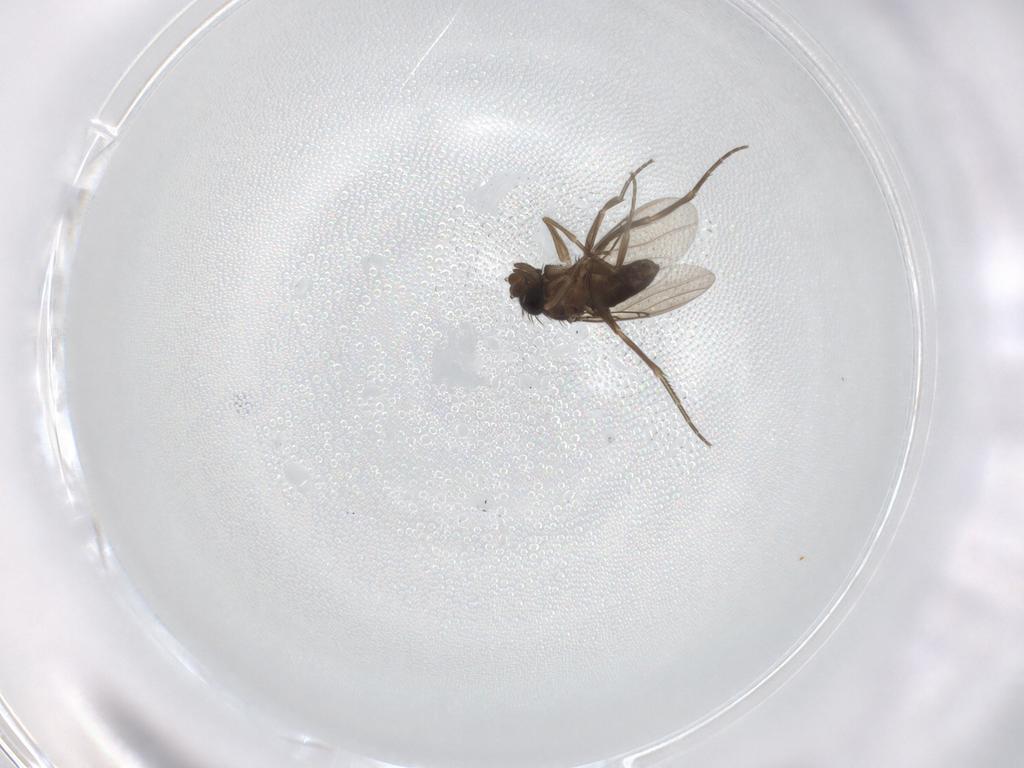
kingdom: Animalia
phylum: Arthropoda
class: Insecta
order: Diptera
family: Phoridae
